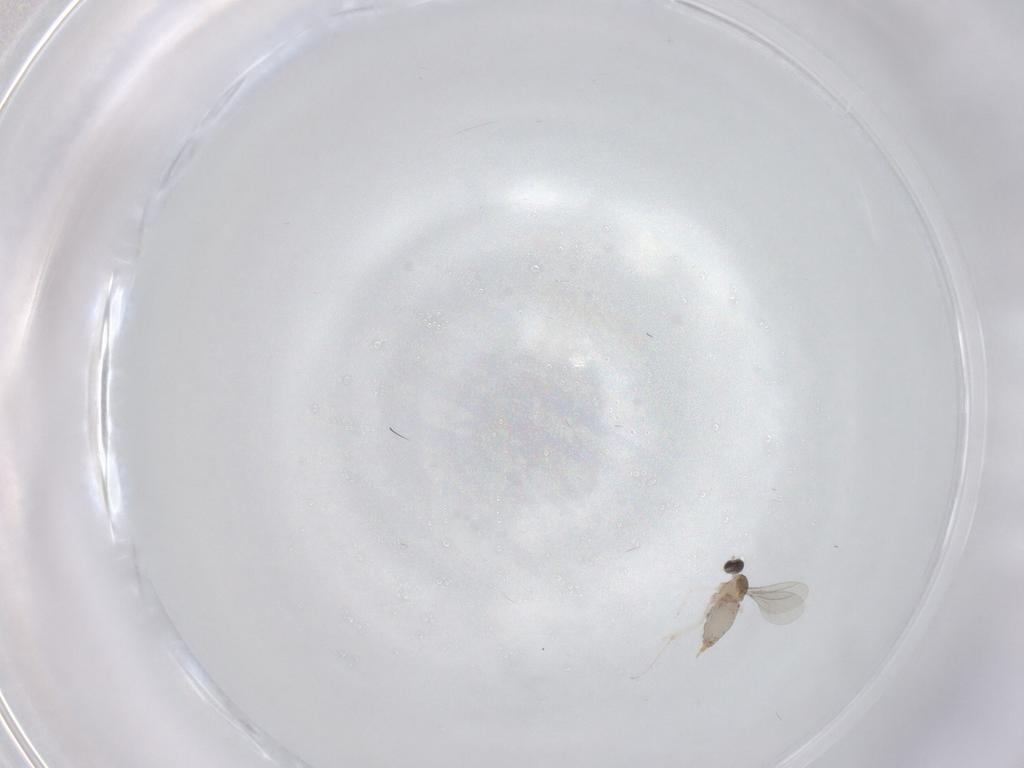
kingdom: Animalia
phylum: Arthropoda
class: Insecta
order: Diptera
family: Cecidomyiidae
